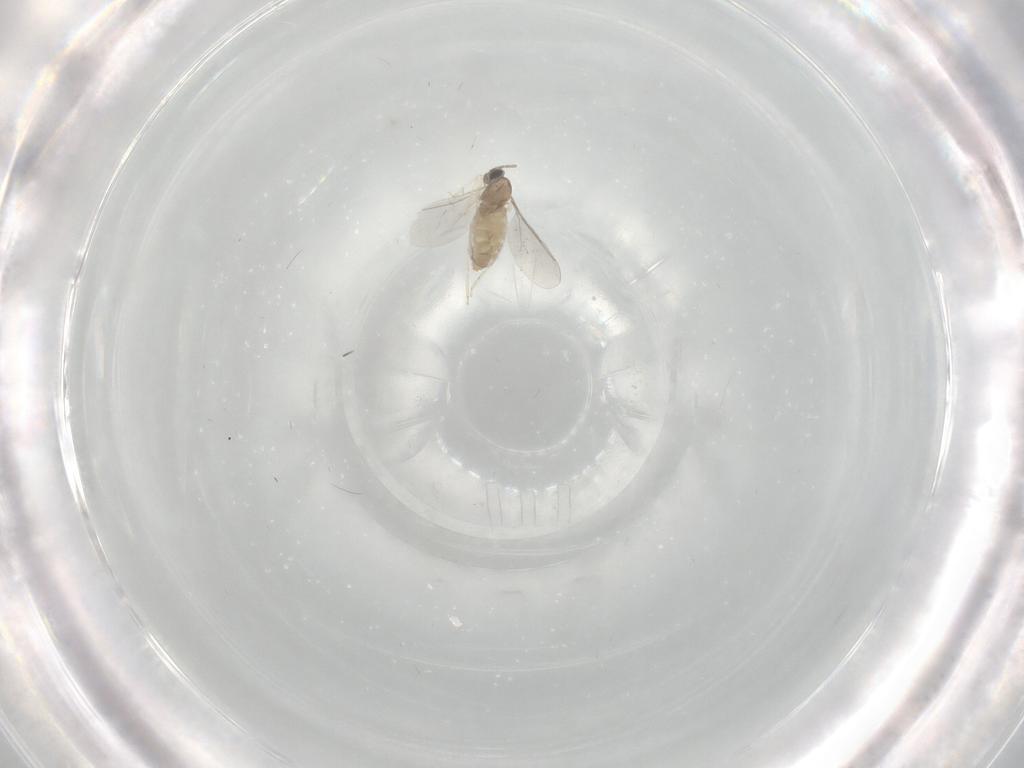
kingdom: Animalia
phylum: Arthropoda
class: Insecta
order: Diptera
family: Cecidomyiidae
